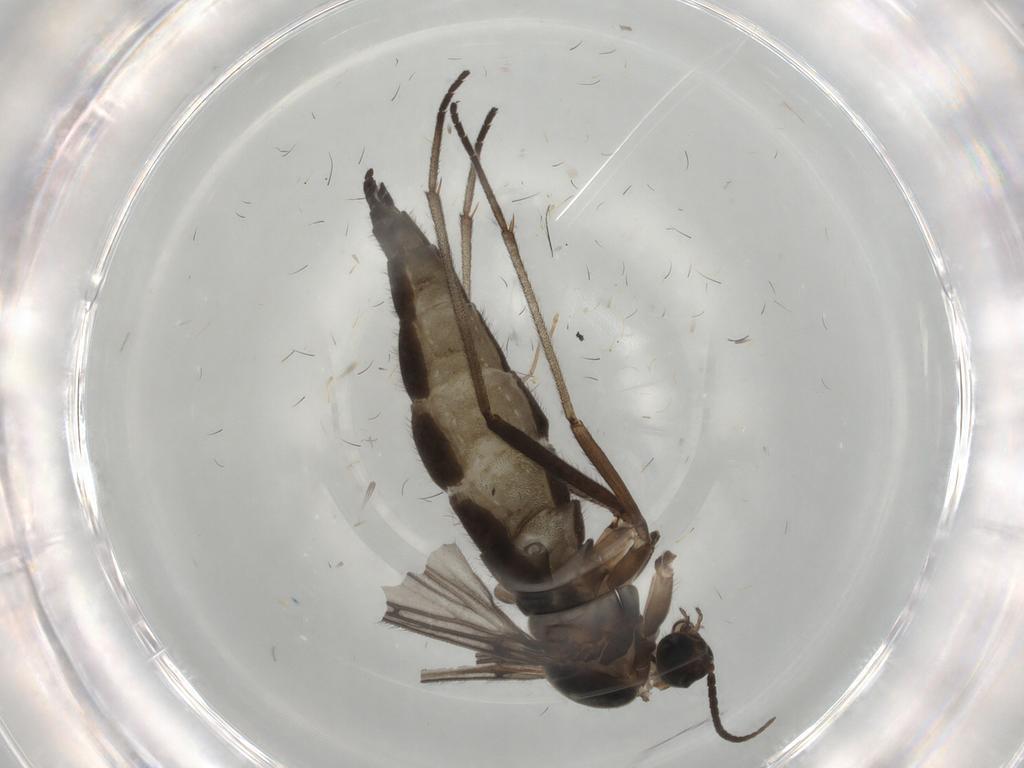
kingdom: Animalia
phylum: Arthropoda
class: Insecta
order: Diptera
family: Sciaridae
